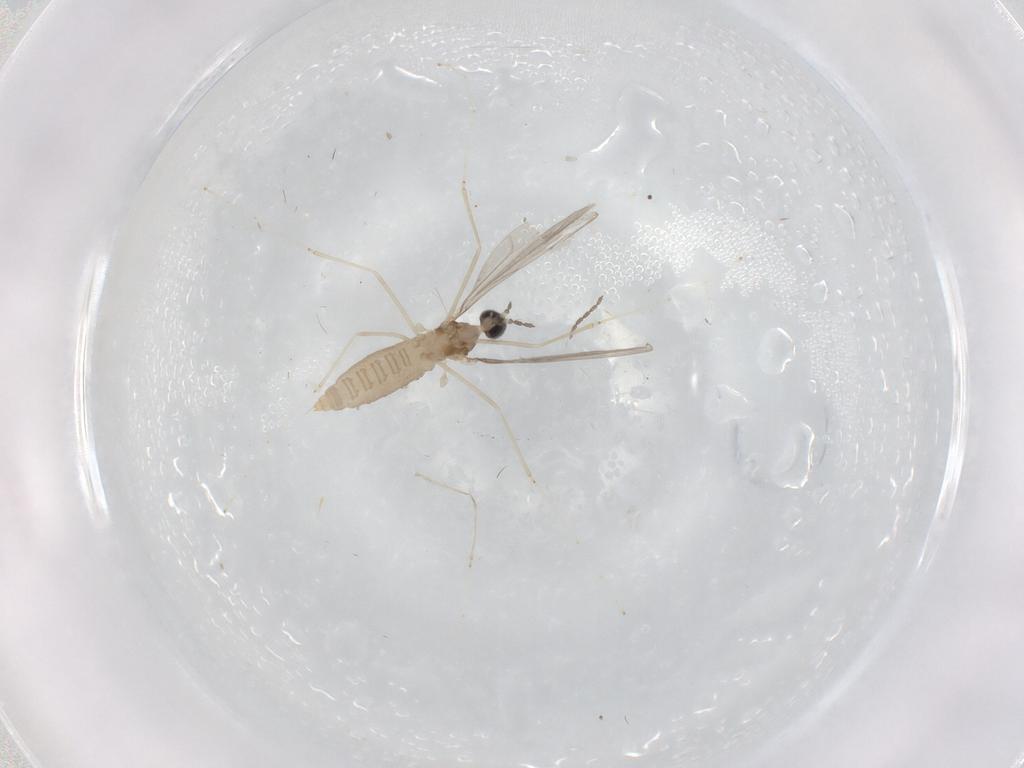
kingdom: Animalia
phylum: Arthropoda
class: Insecta
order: Diptera
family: Cecidomyiidae
